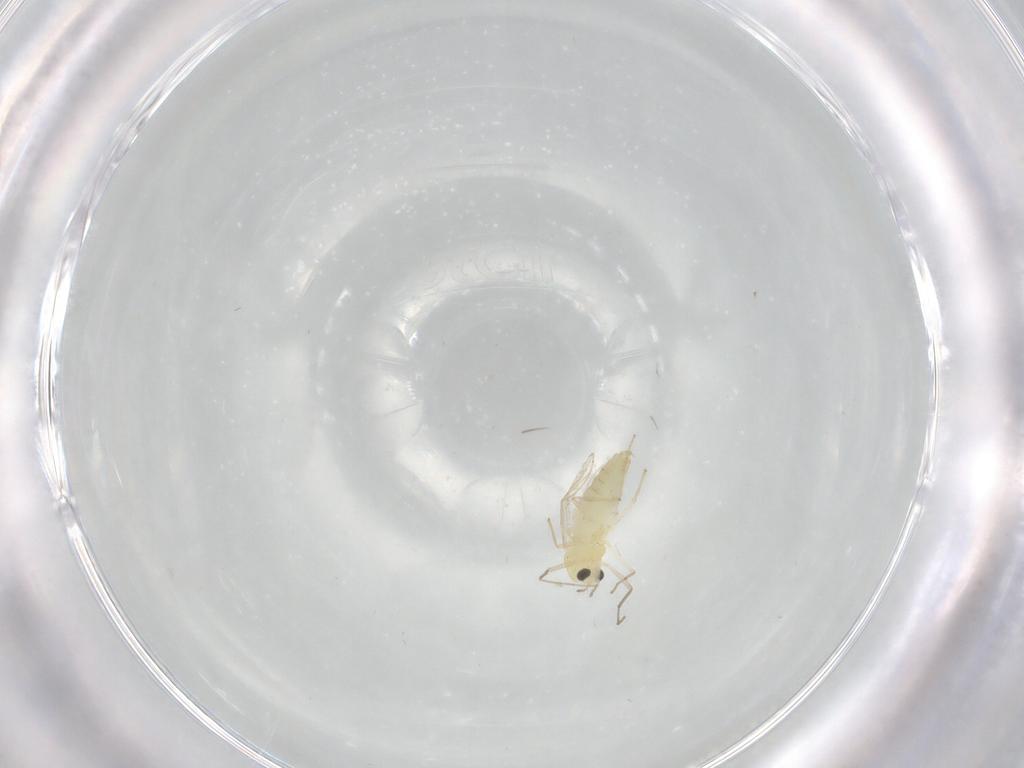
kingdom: Animalia
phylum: Arthropoda
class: Insecta
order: Diptera
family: Chironomidae
